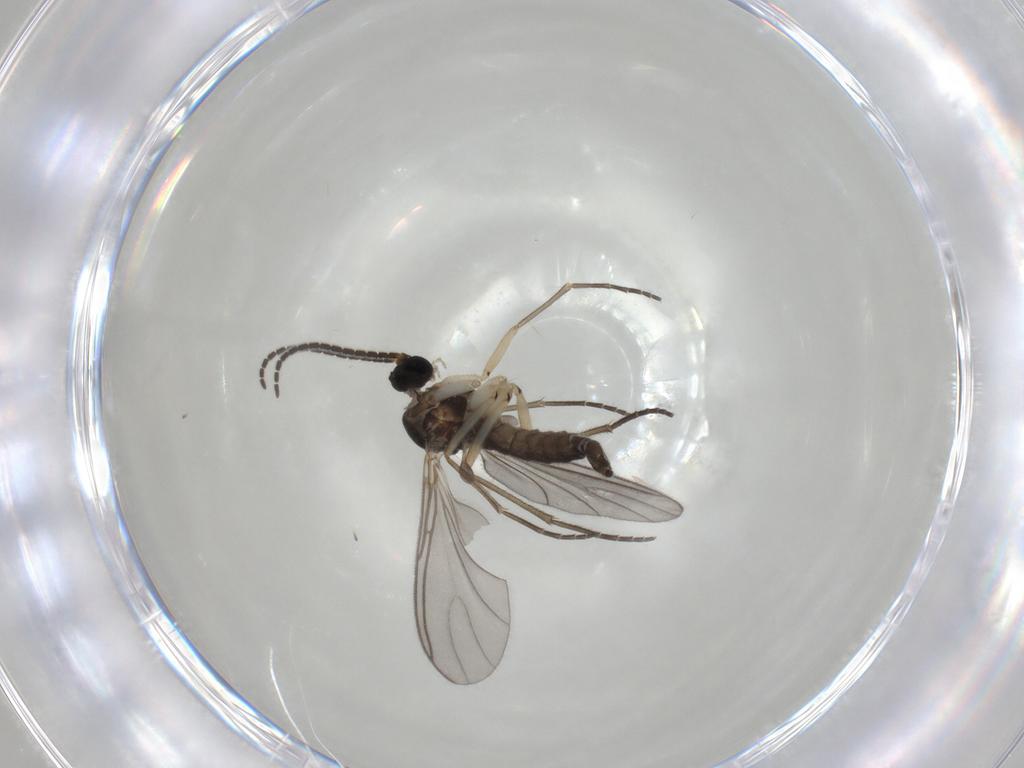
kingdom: Animalia
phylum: Arthropoda
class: Insecta
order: Diptera
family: Sciaridae
